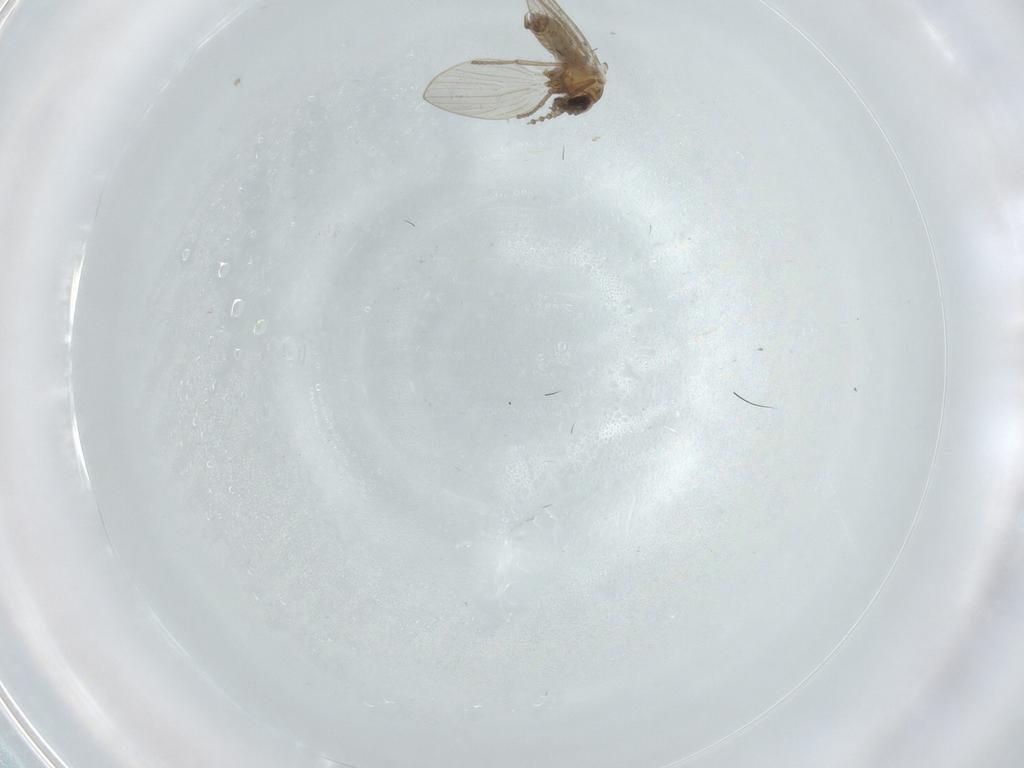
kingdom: Animalia
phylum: Arthropoda
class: Insecta
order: Diptera
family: Psychodidae
